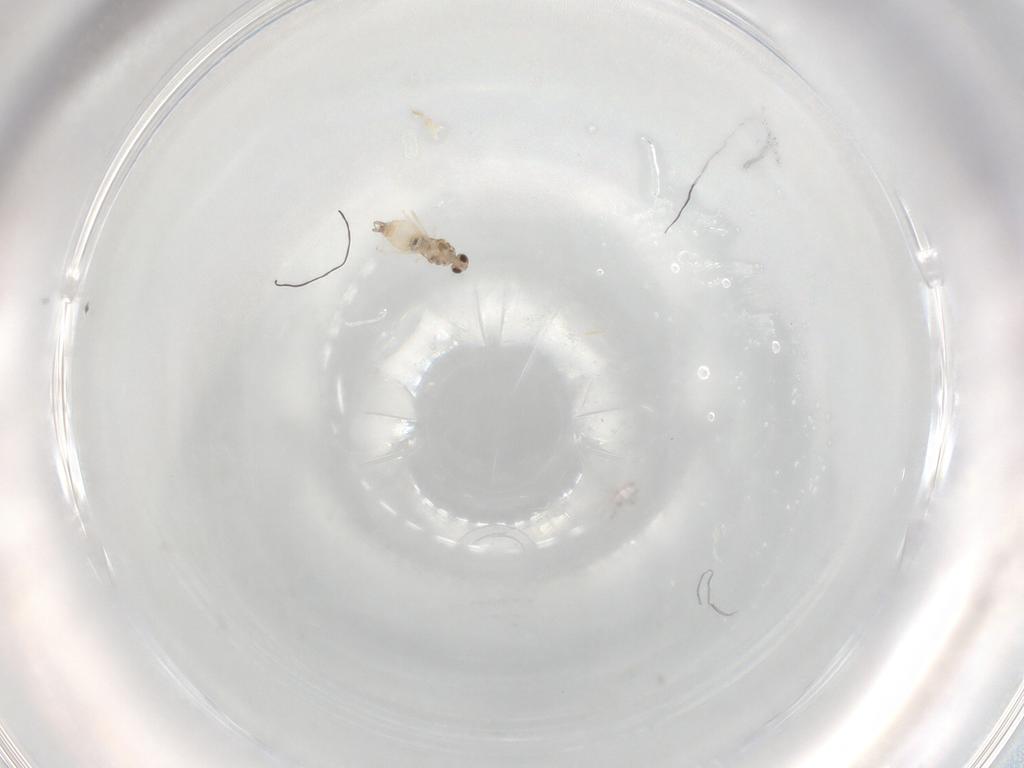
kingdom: Animalia
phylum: Arthropoda
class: Insecta
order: Diptera
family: Cecidomyiidae
